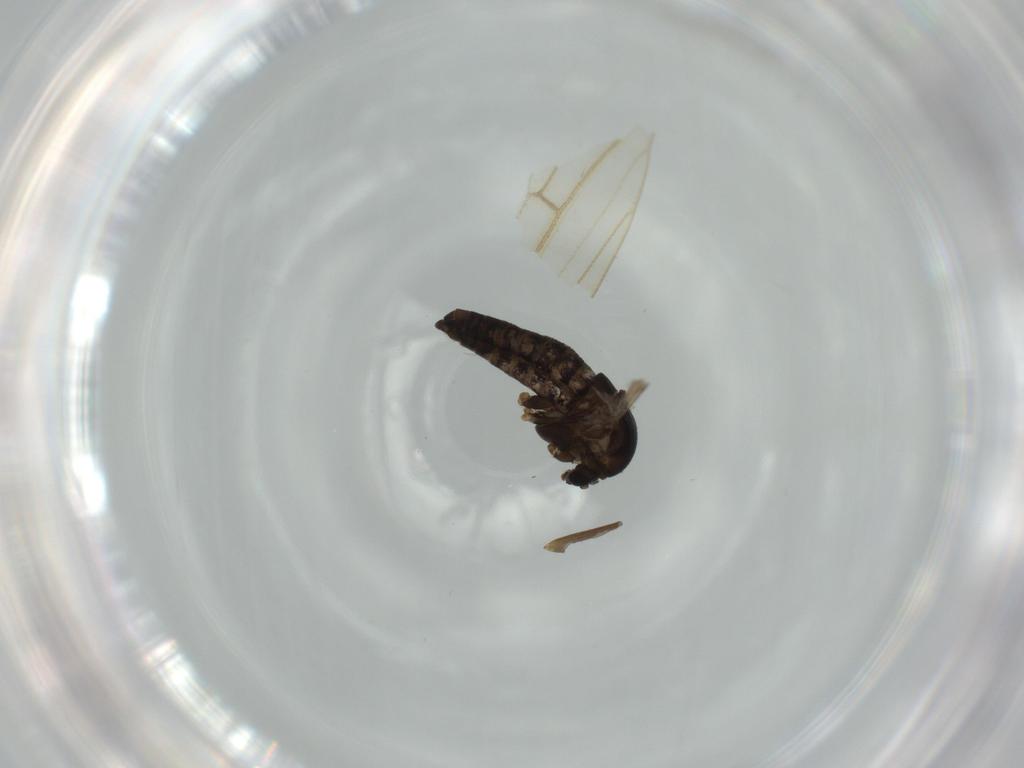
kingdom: Animalia
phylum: Arthropoda
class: Insecta
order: Diptera
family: Chironomidae
